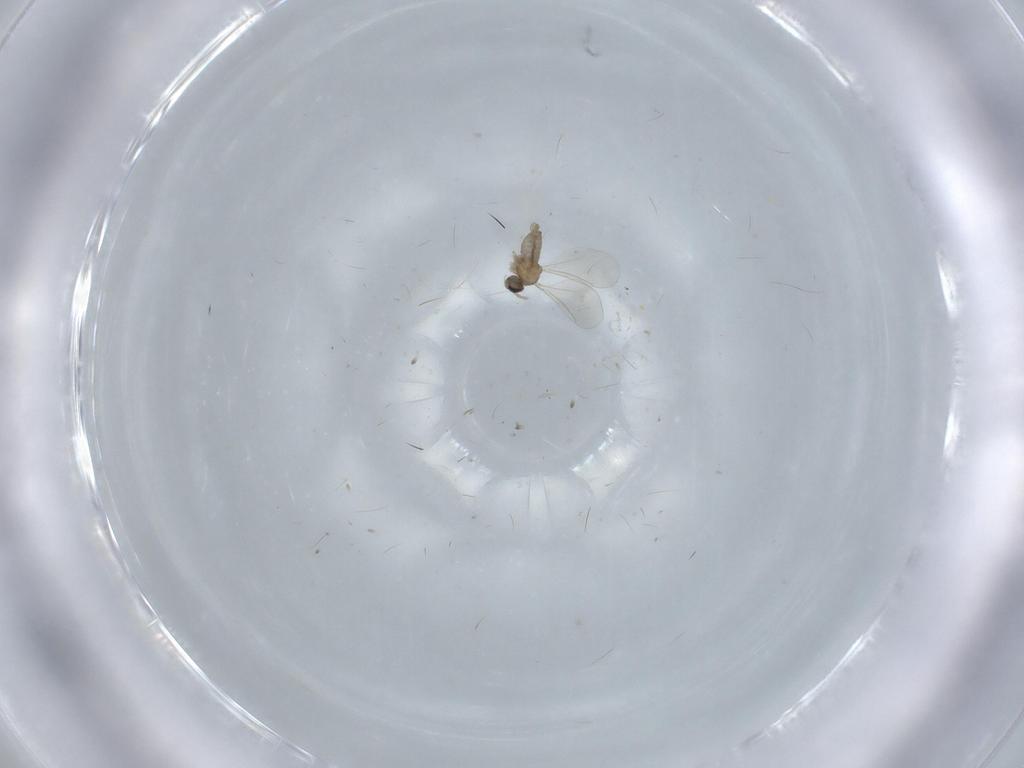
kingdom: Animalia
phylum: Arthropoda
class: Insecta
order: Diptera
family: Cecidomyiidae
